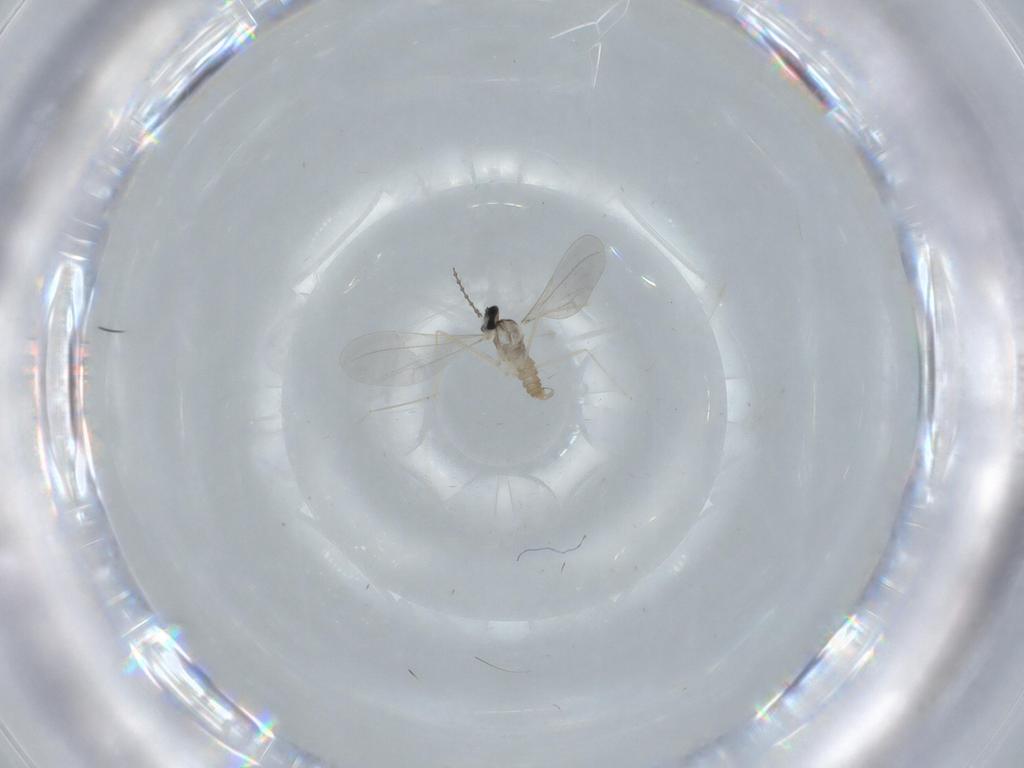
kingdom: Animalia
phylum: Arthropoda
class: Insecta
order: Diptera
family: Cecidomyiidae
